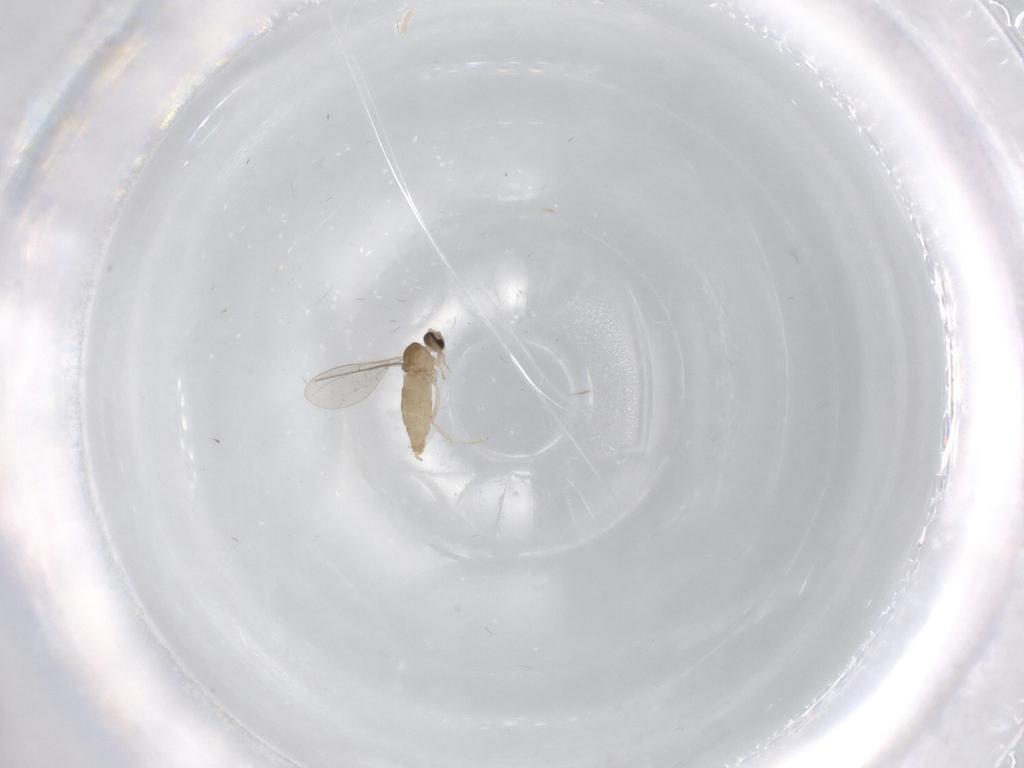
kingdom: Animalia
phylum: Arthropoda
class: Insecta
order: Diptera
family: Cecidomyiidae
